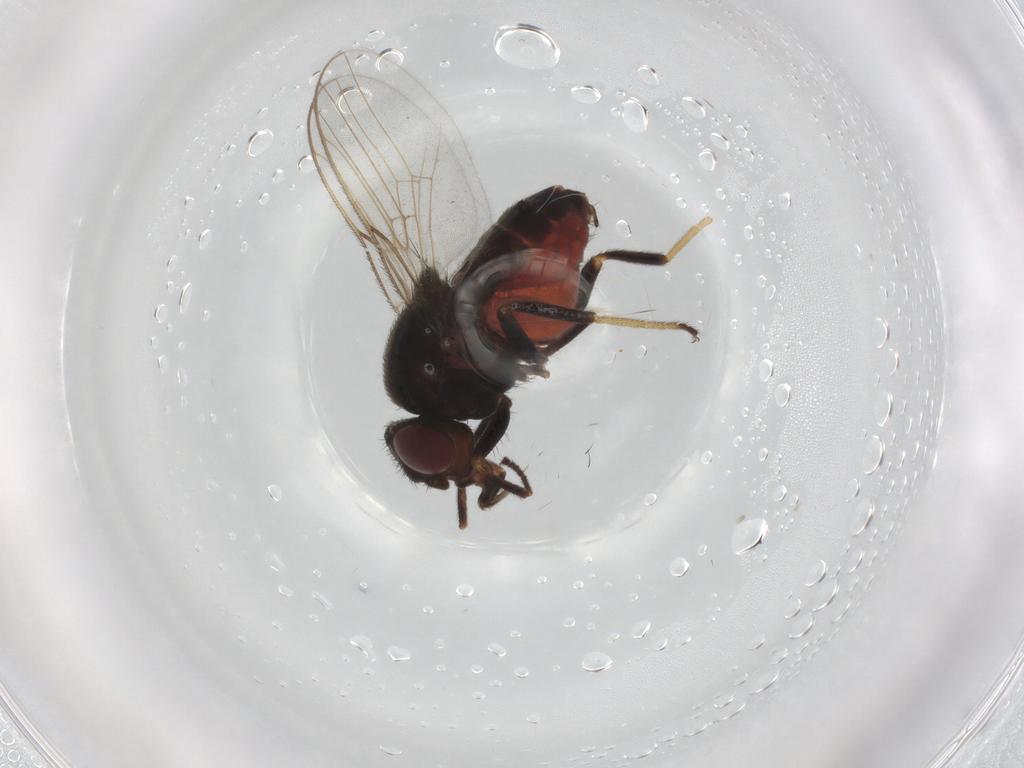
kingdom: Animalia
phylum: Arthropoda
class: Insecta
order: Diptera
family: Chloropidae
